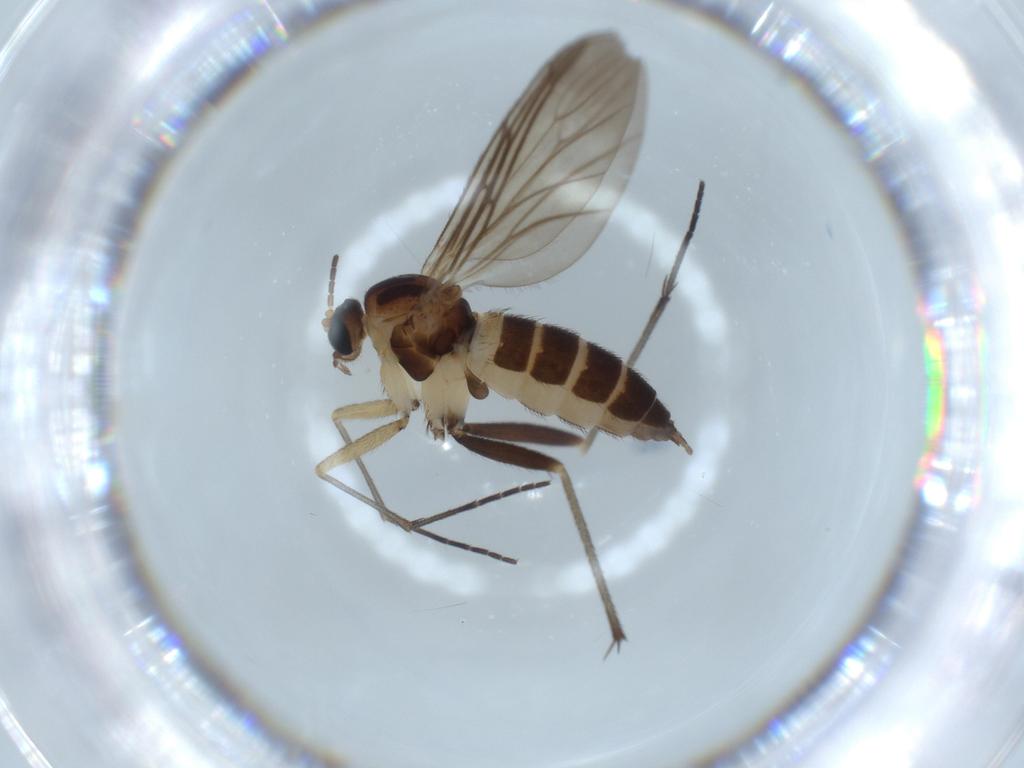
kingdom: Animalia
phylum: Arthropoda
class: Insecta
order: Diptera
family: Sciaridae
